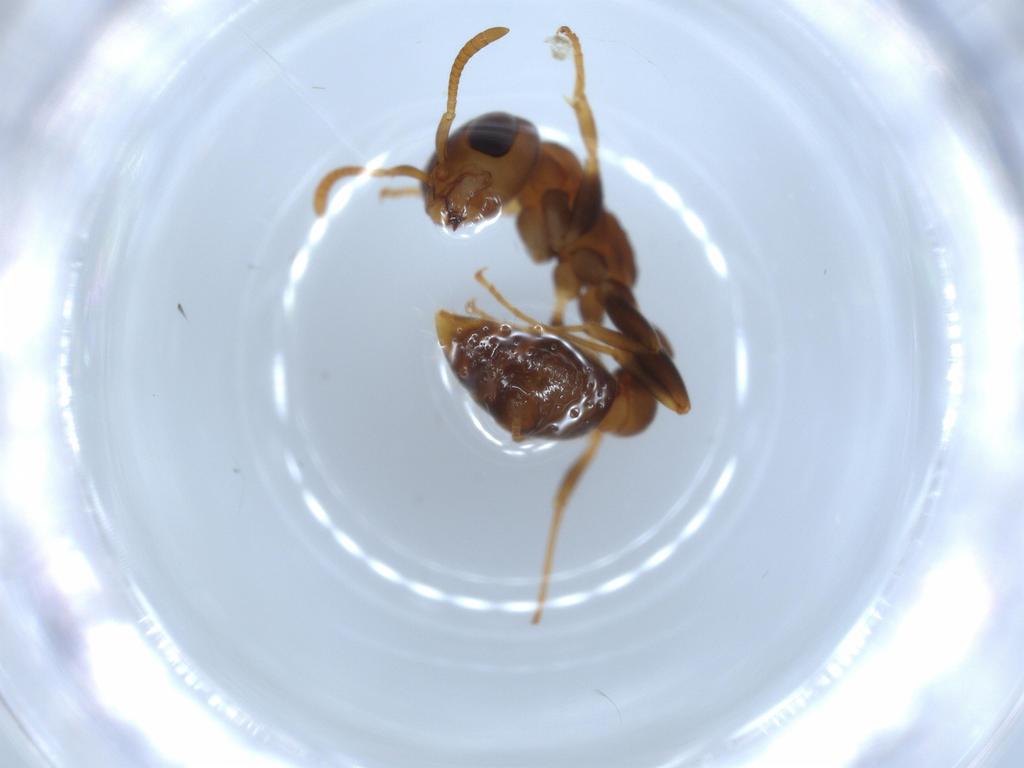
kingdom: Animalia
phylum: Arthropoda
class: Insecta
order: Hymenoptera
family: Formicidae
